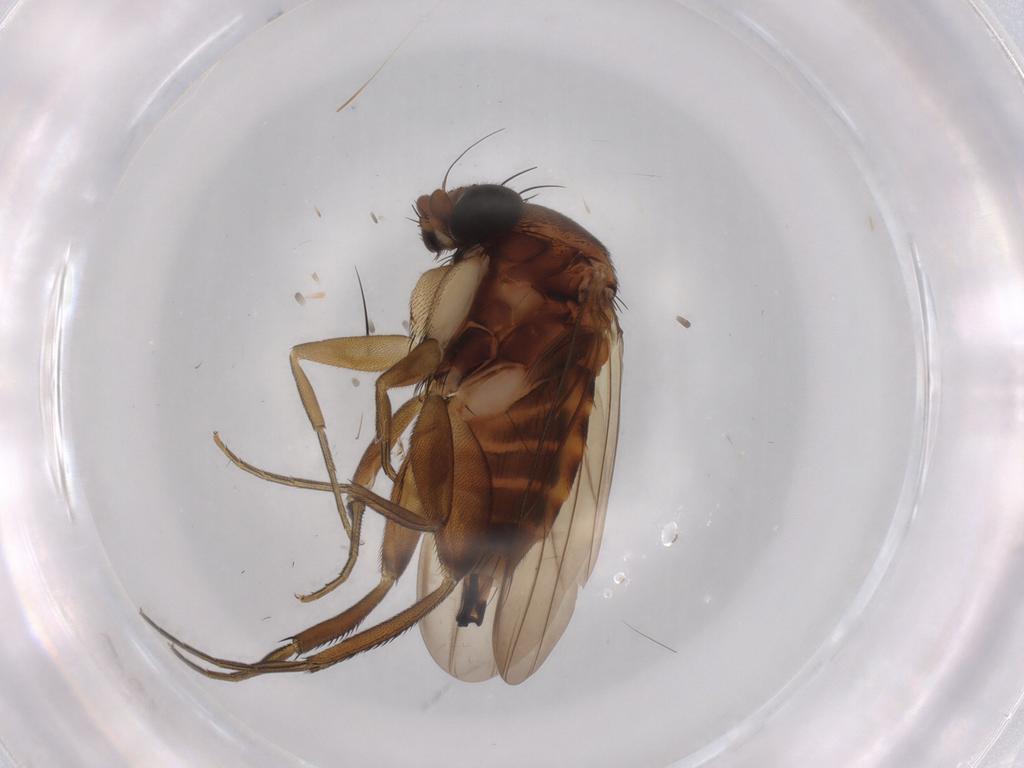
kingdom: Animalia
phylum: Arthropoda
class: Insecta
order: Diptera
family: Phoridae
